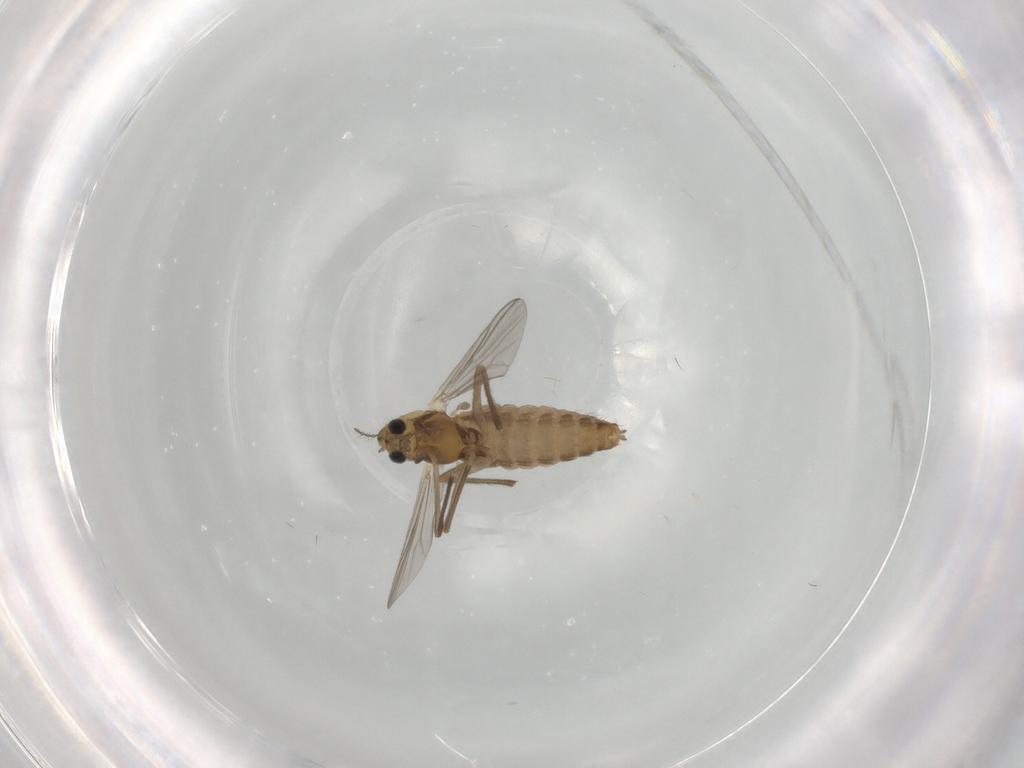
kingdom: Animalia
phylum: Arthropoda
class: Insecta
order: Diptera
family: Chironomidae
